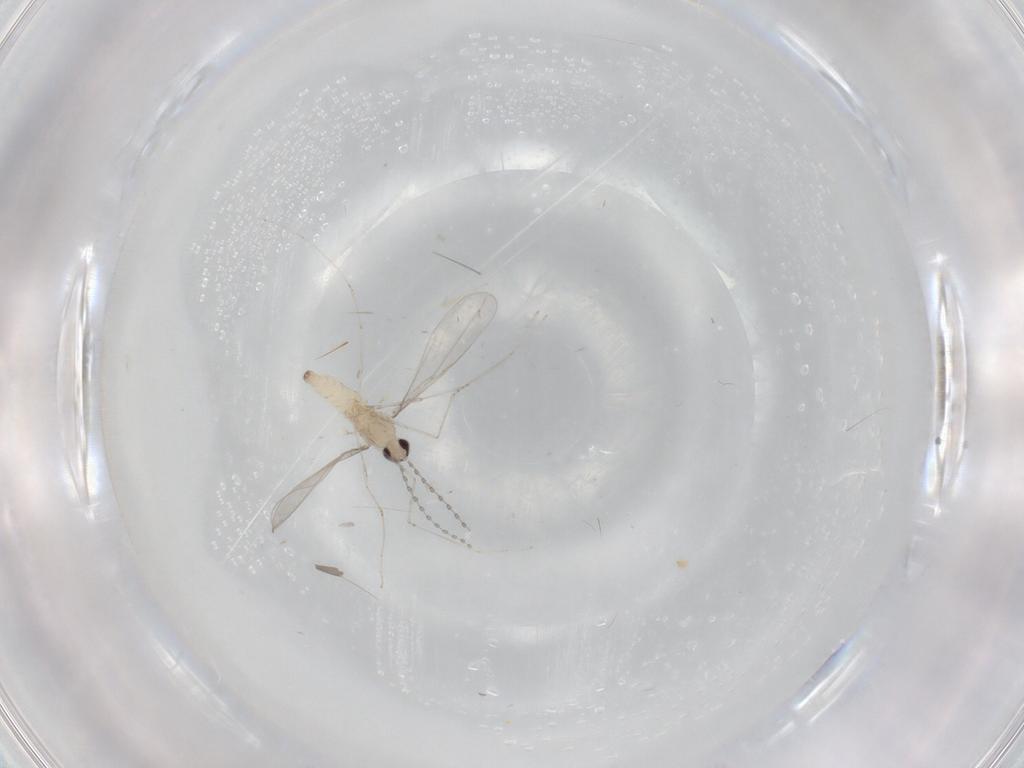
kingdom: Animalia
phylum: Arthropoda
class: Insecta
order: Diptera
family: Cecidomyiidae
